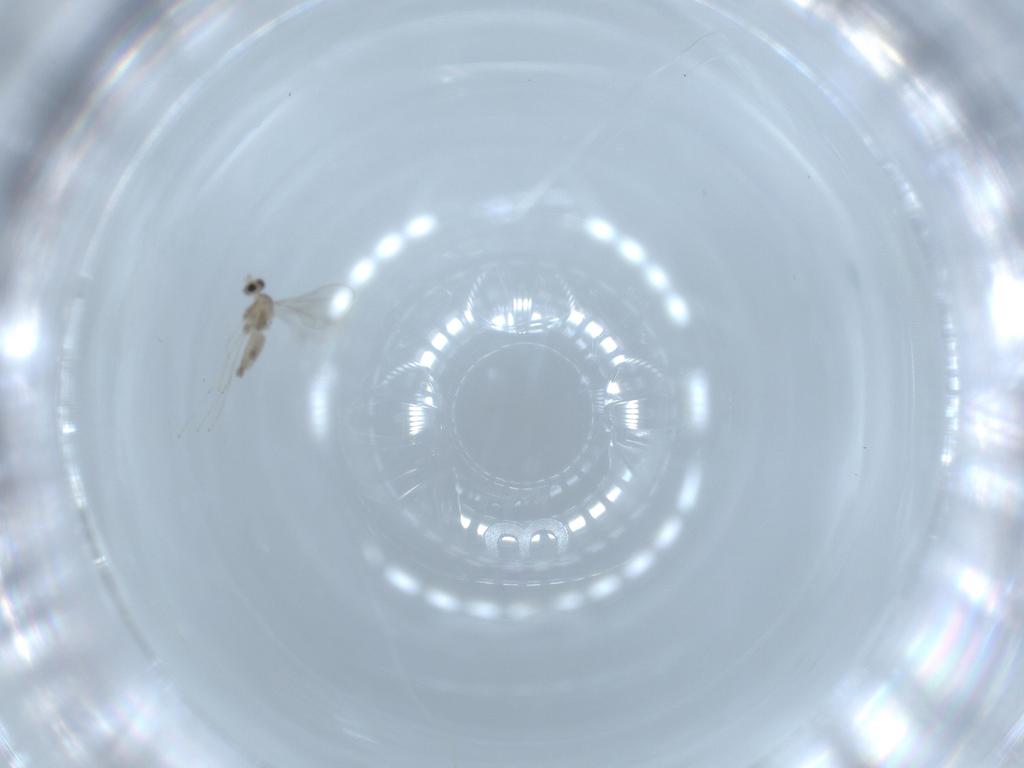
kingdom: Animalia
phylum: Arthropoda
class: Insecta
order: Diptera
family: Anthomyiidae
